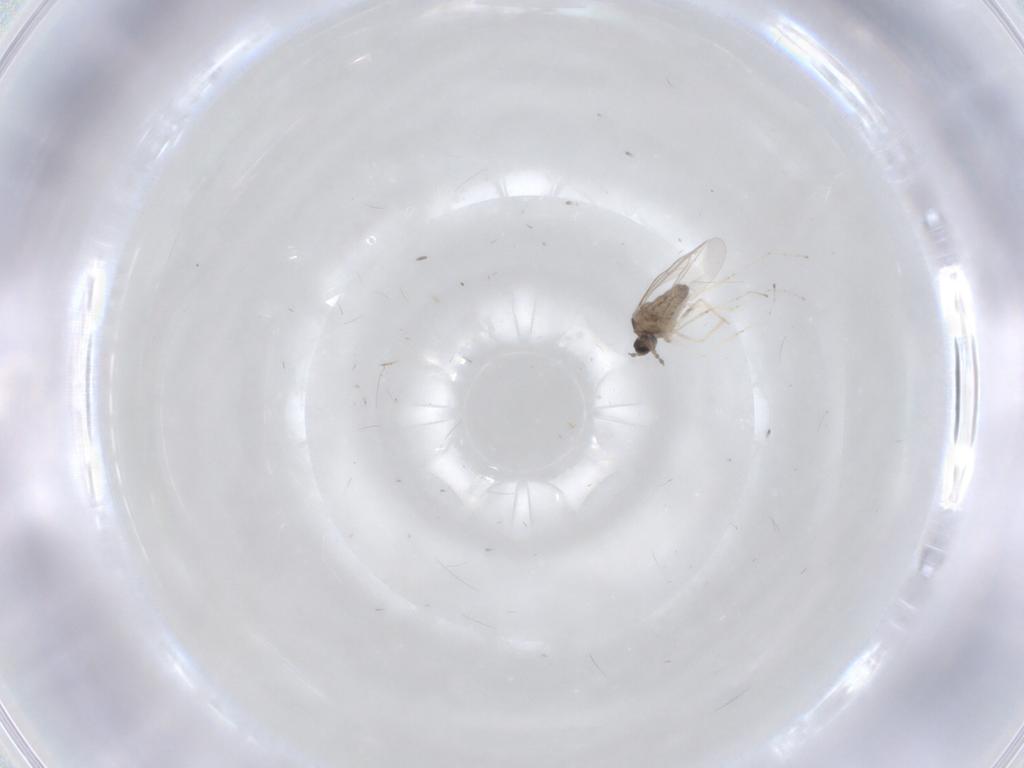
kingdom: Animalia
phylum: Arthropoda
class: Insecta
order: Diptera
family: Cecidomyiidae
